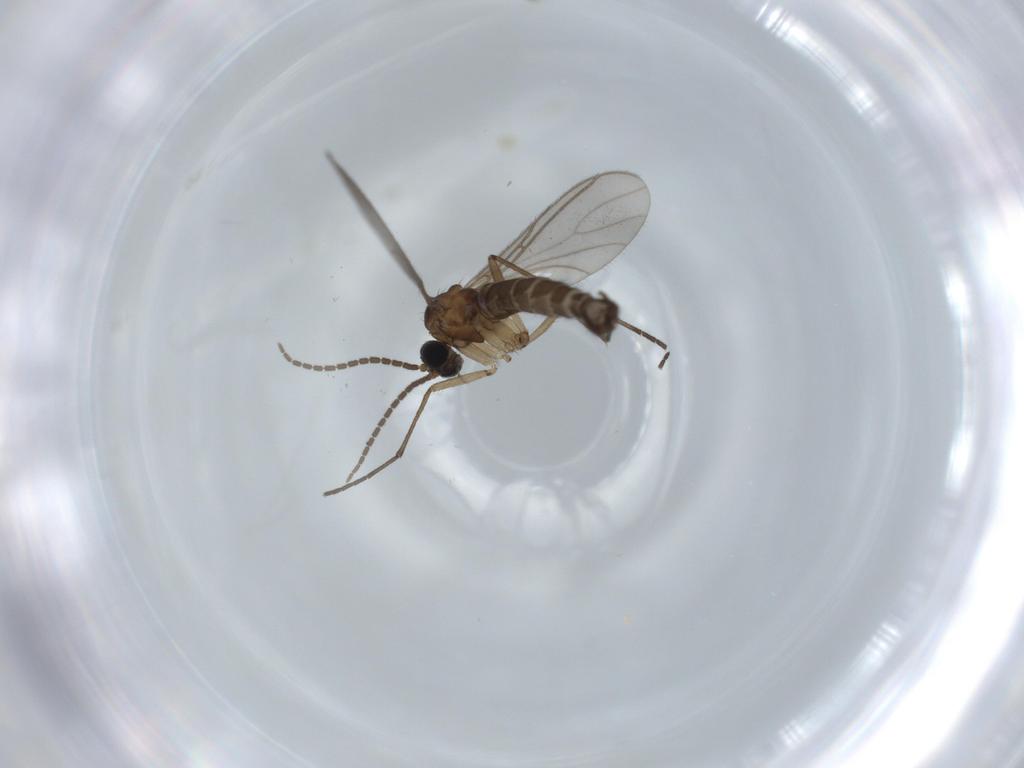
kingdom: Animalia
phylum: Arthropoda
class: Insecta
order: Diptera
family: Sciaridae
